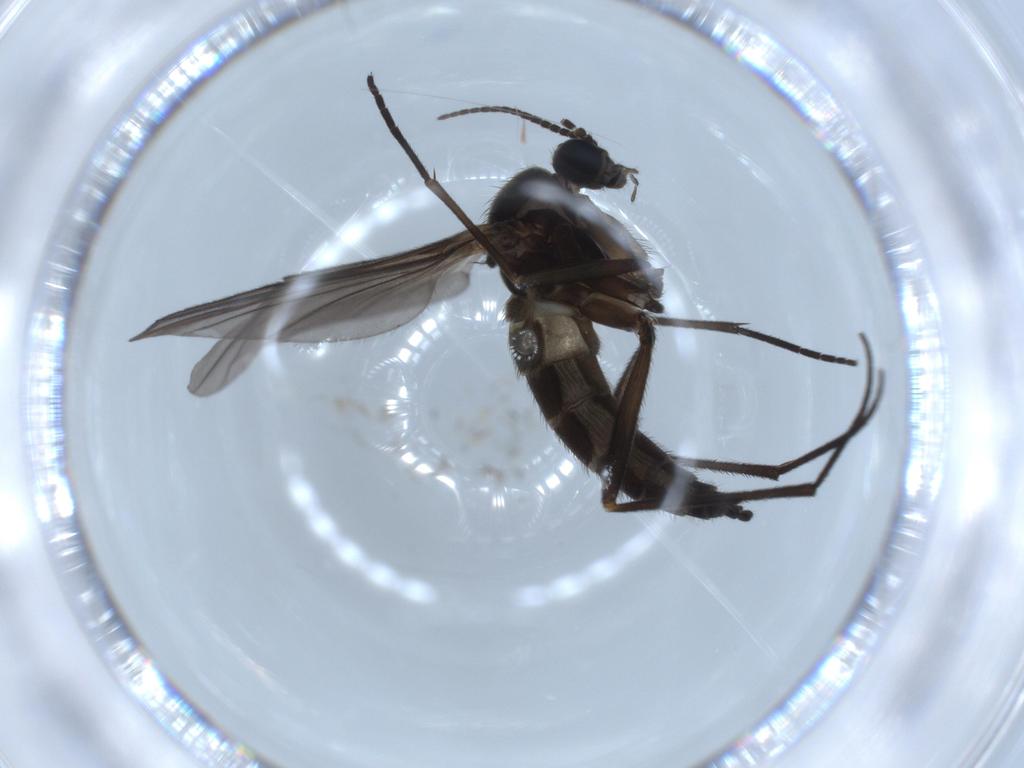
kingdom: Animalia
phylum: Arthropoda
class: Insecta
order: Diptera
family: Sciaridae
